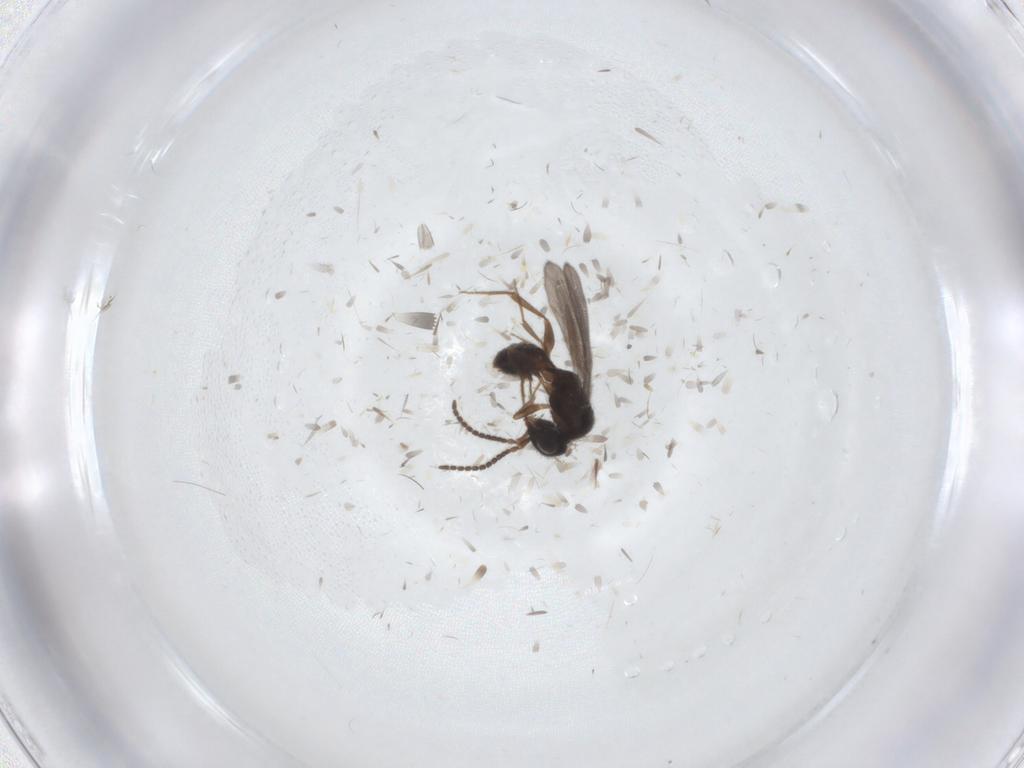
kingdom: Animalia
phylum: Arthropoda
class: Insecta
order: Hymenoptera
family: Bethylidae
